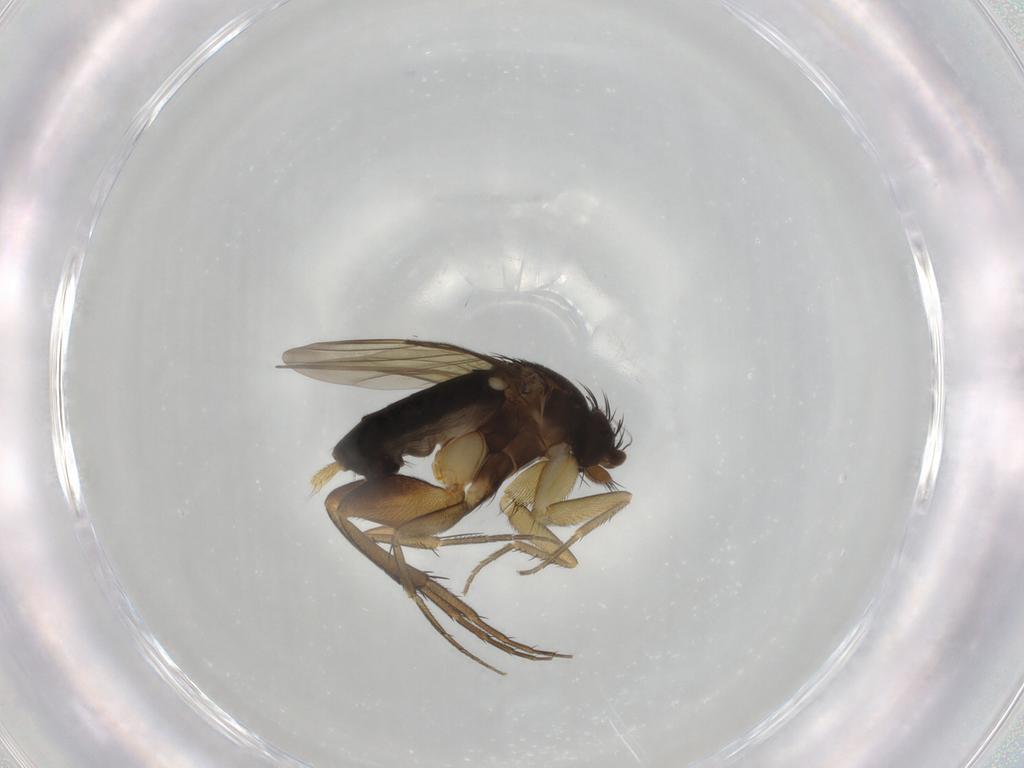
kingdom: Animalia
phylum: Arthropoda
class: Insecta
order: Diptera
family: Phoridae
